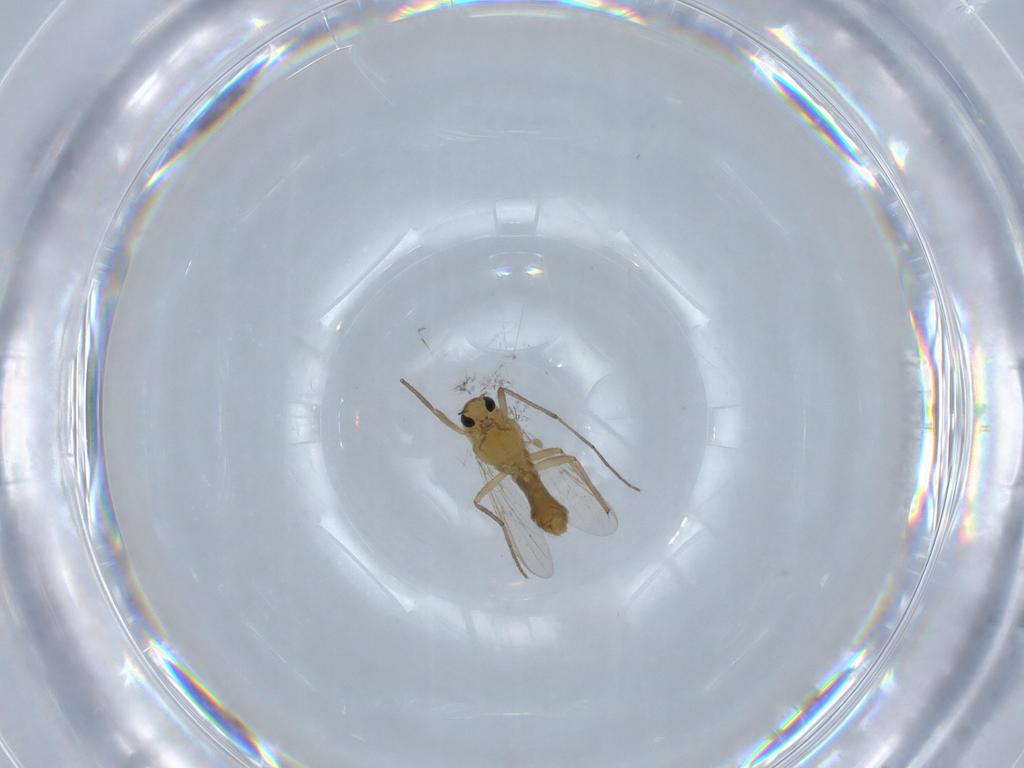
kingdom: Animalia
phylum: Arthropoda
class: Insecta
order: Diptera
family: Chironomidae
